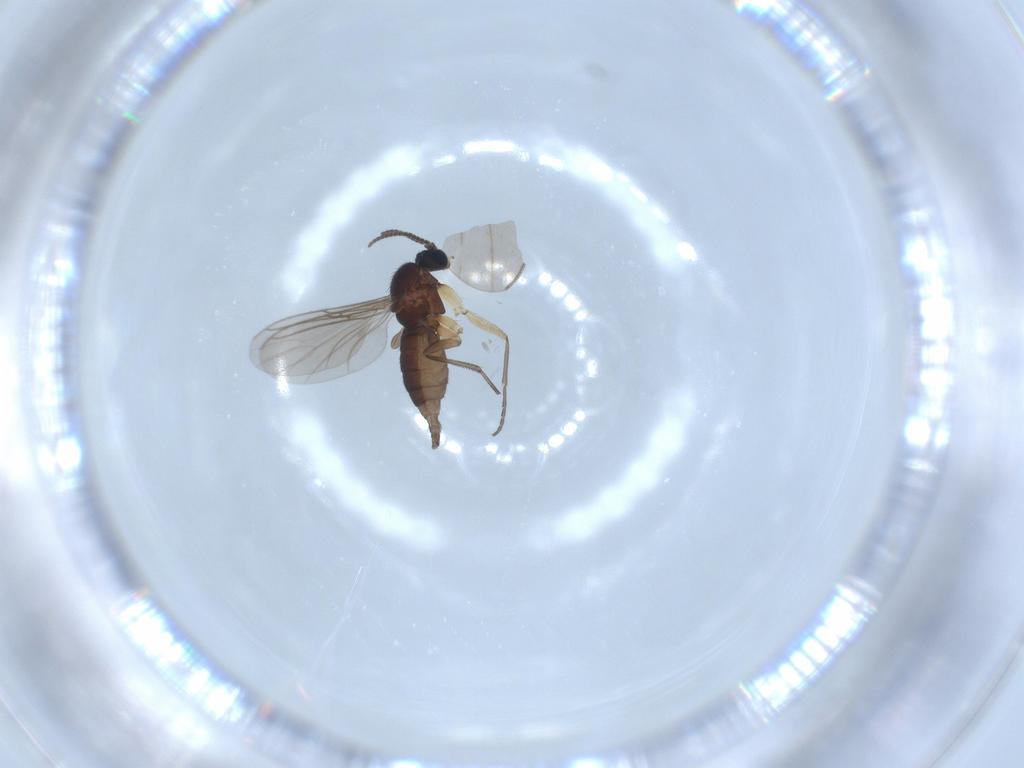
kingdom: Animalia
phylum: Arthropoda
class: Insecta
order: Diptera
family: Sciaridae
